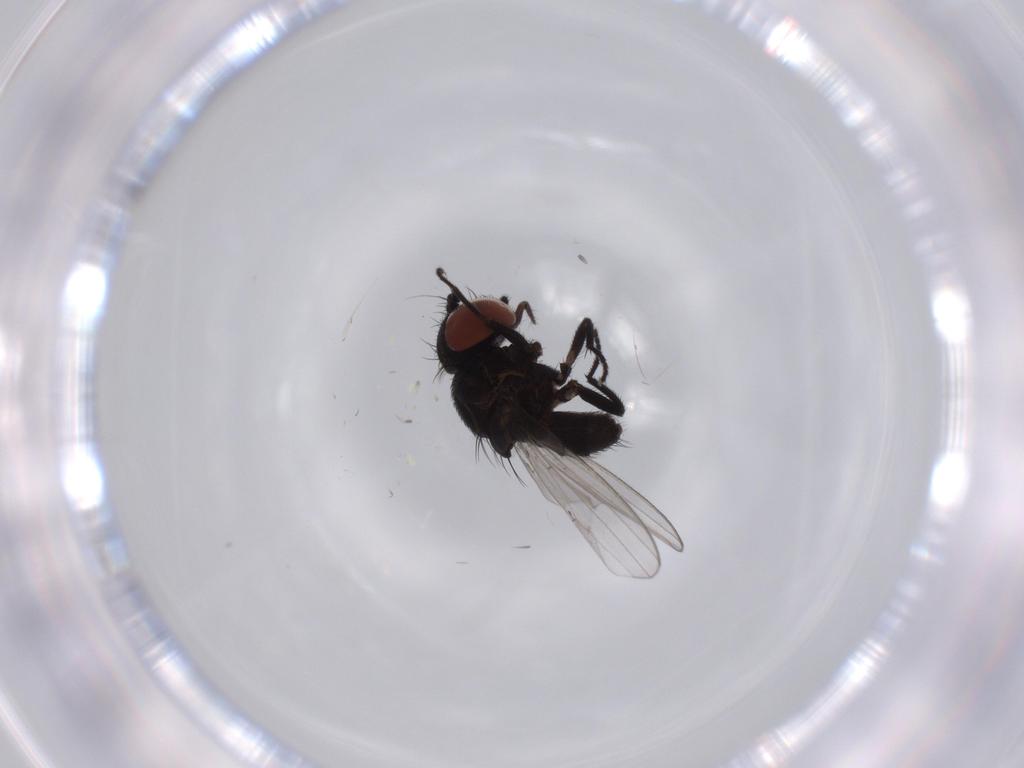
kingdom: Animalia
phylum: Arthropoda
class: Insecta
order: Diptera
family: Milichiidae
